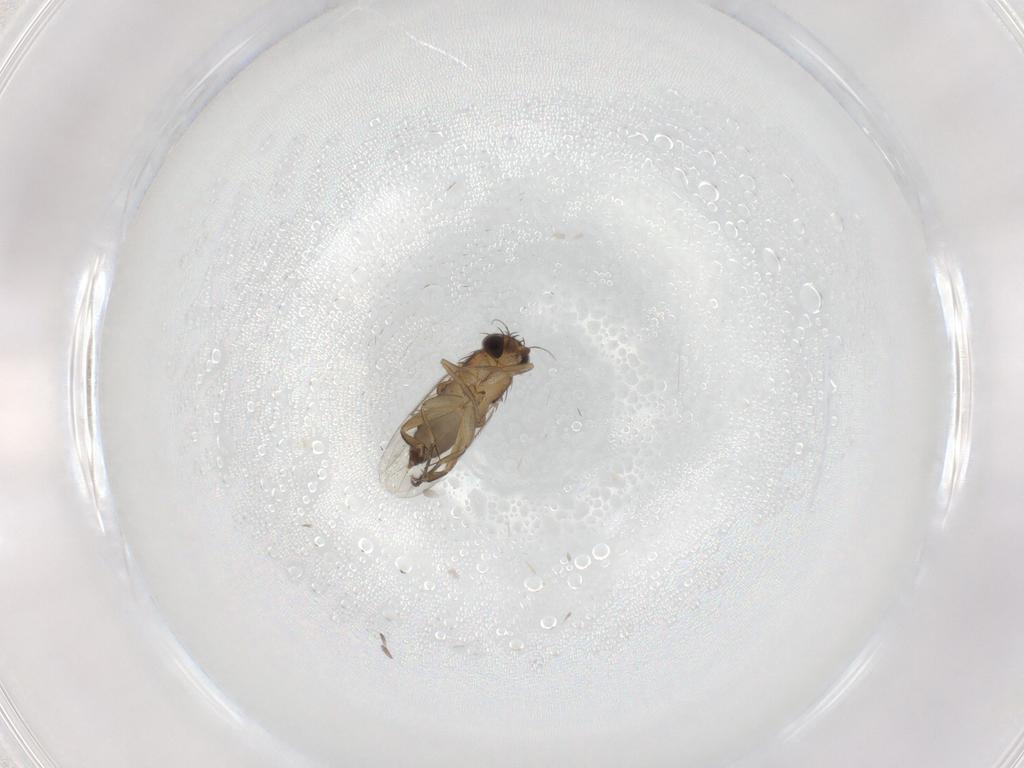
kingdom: Animalia
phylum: Arthropoda
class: Insecta
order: Diptera
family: Phoridae
